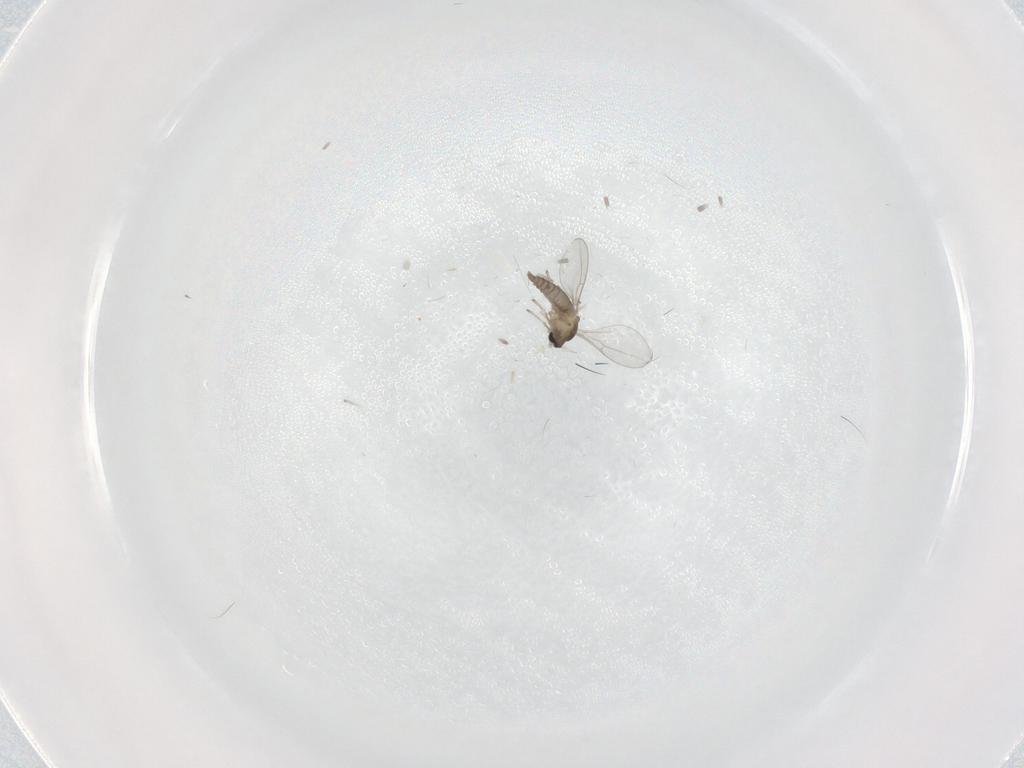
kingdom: Animalia
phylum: Arthropoda
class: Insecta
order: Diptera
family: Cecidomyiidae
